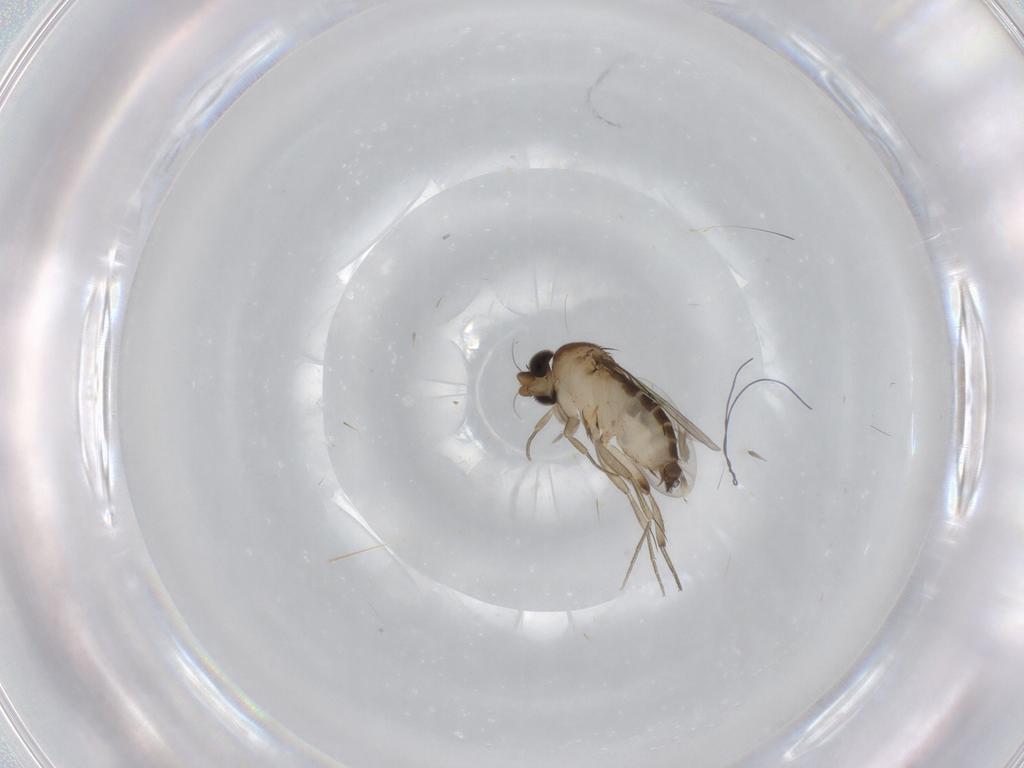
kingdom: Animalia
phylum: Arthropoda
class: Insecta
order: Diptera
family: Phoridae
